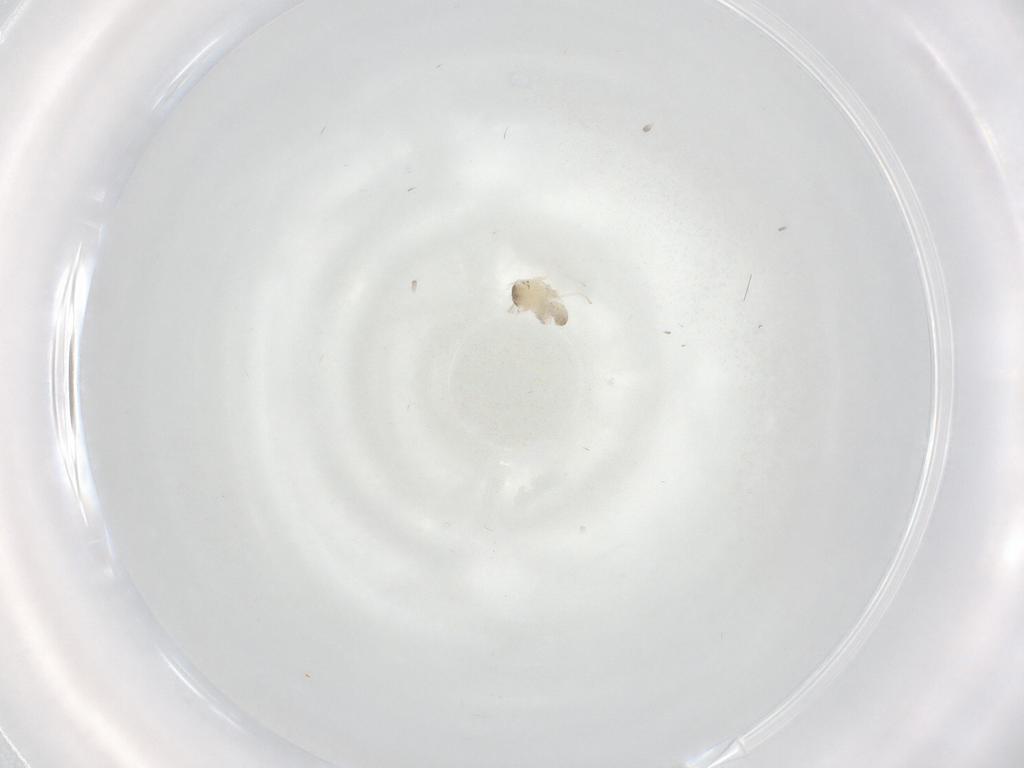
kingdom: Animalia
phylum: Arthropoda
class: Insecta
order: Diptera
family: Cecidomyiidae
